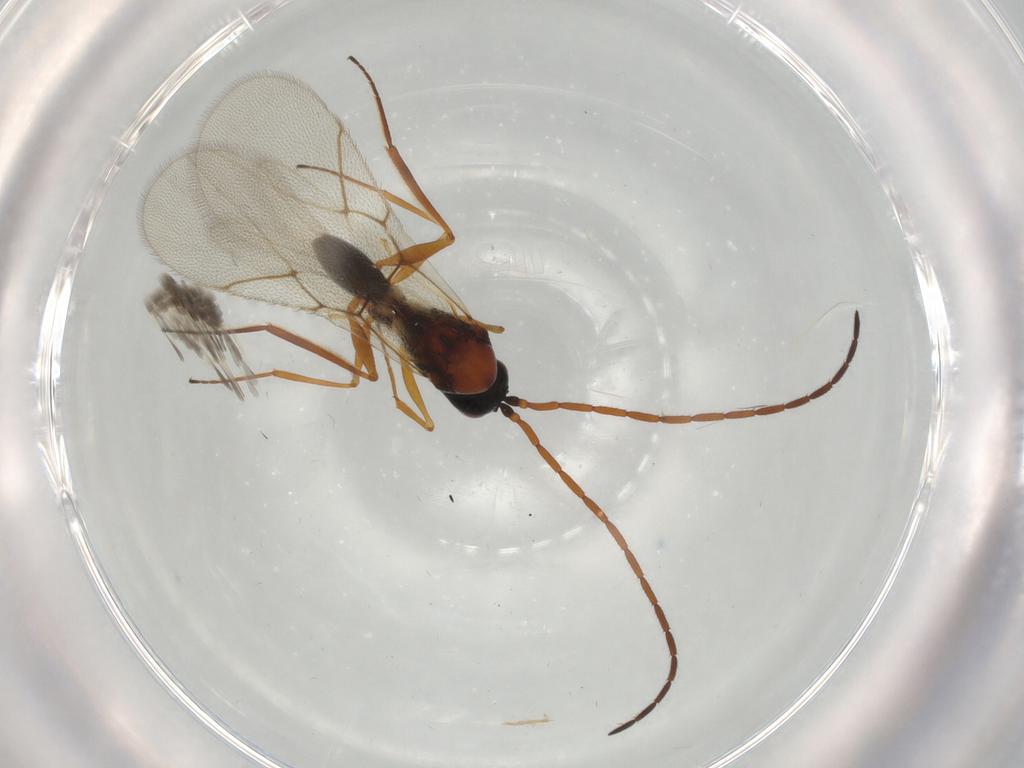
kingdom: Animalia
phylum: Arthropoda
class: Insecta
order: Hymenoptera
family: Figitidae
